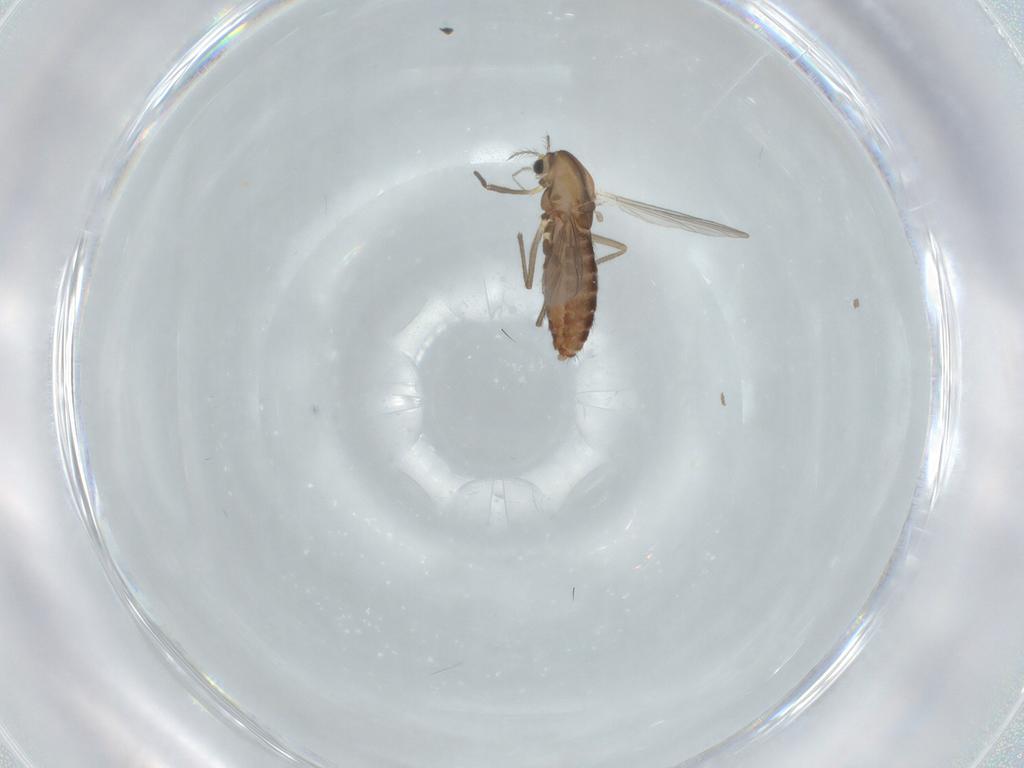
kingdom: Animalia
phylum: Arthropoda
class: Insecta
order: Diptera
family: Chironomidae
